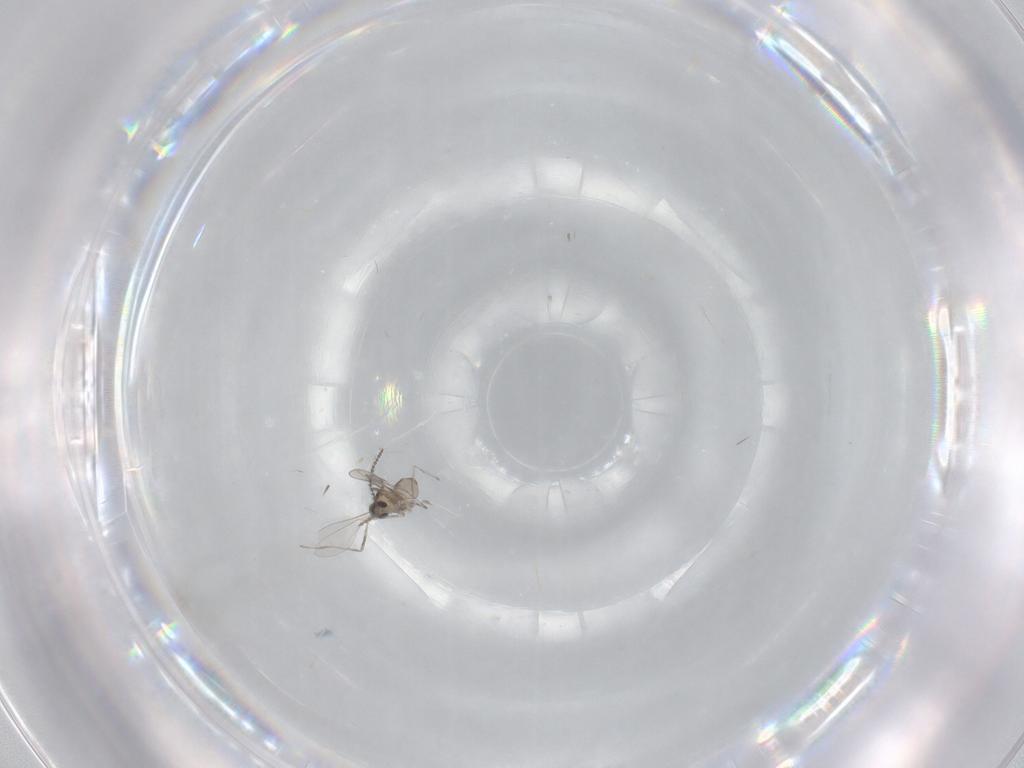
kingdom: Animalia
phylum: Arthropoda
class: Insecta
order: Diptera
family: Cecidomyiidae
